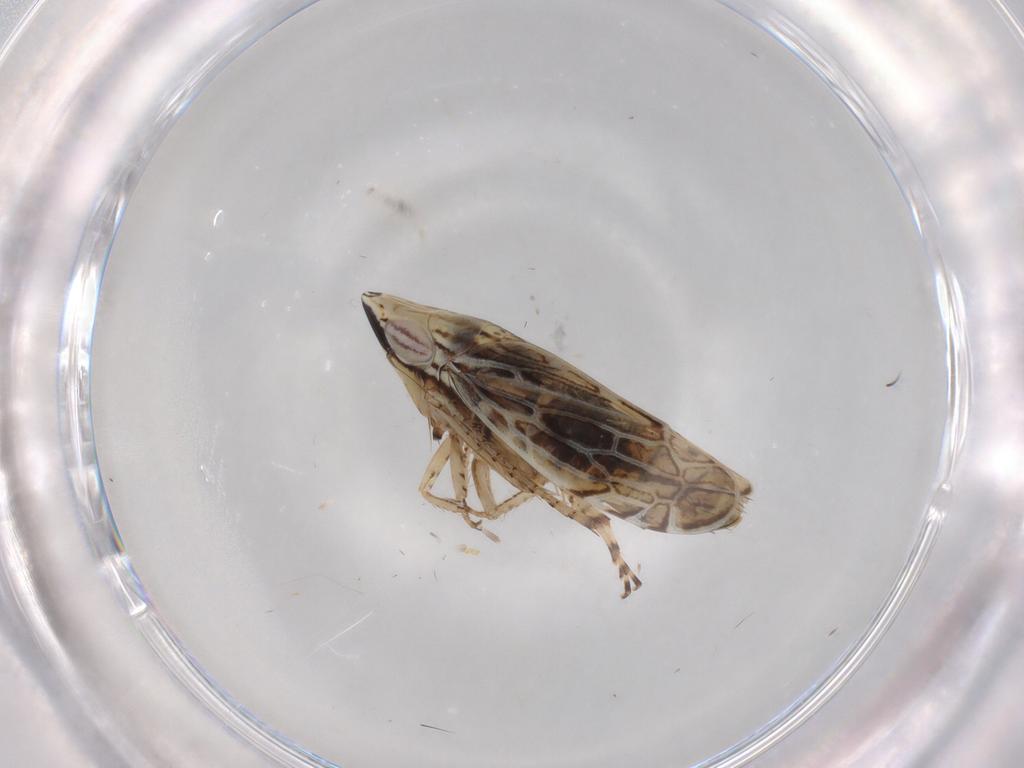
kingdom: Animalia
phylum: Arthropoda
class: Insecta
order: Hemiptera
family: Cicadellidae
